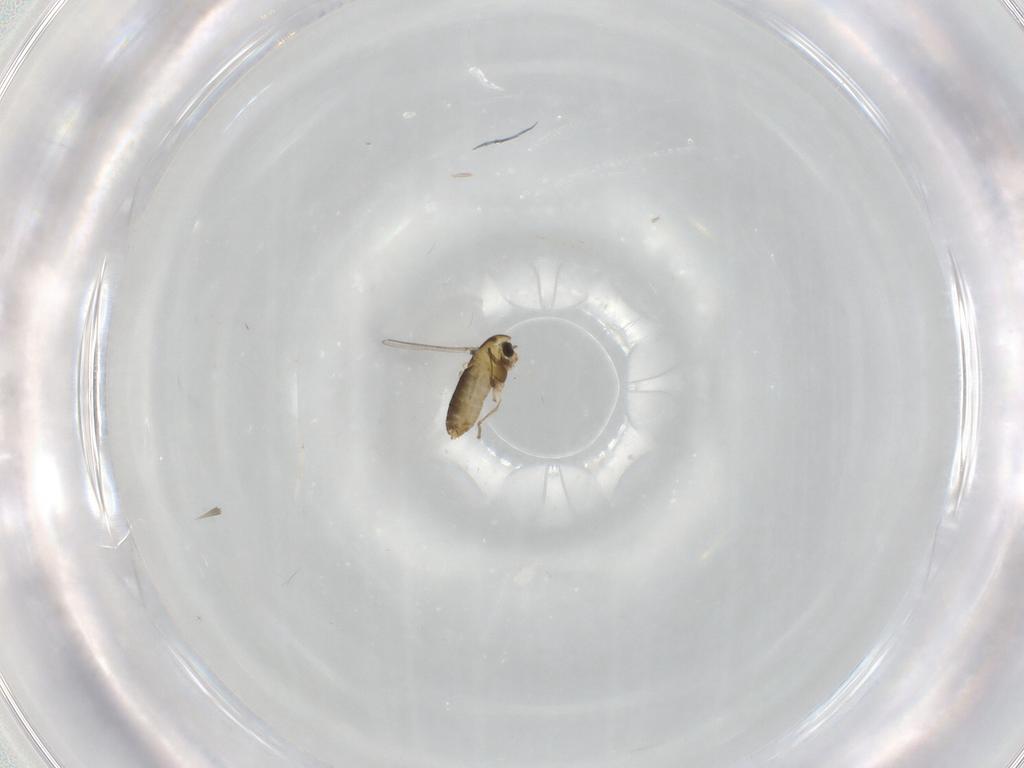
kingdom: Animalia
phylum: Arthropoda
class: Insecta
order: Diptera
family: Chironomidae
